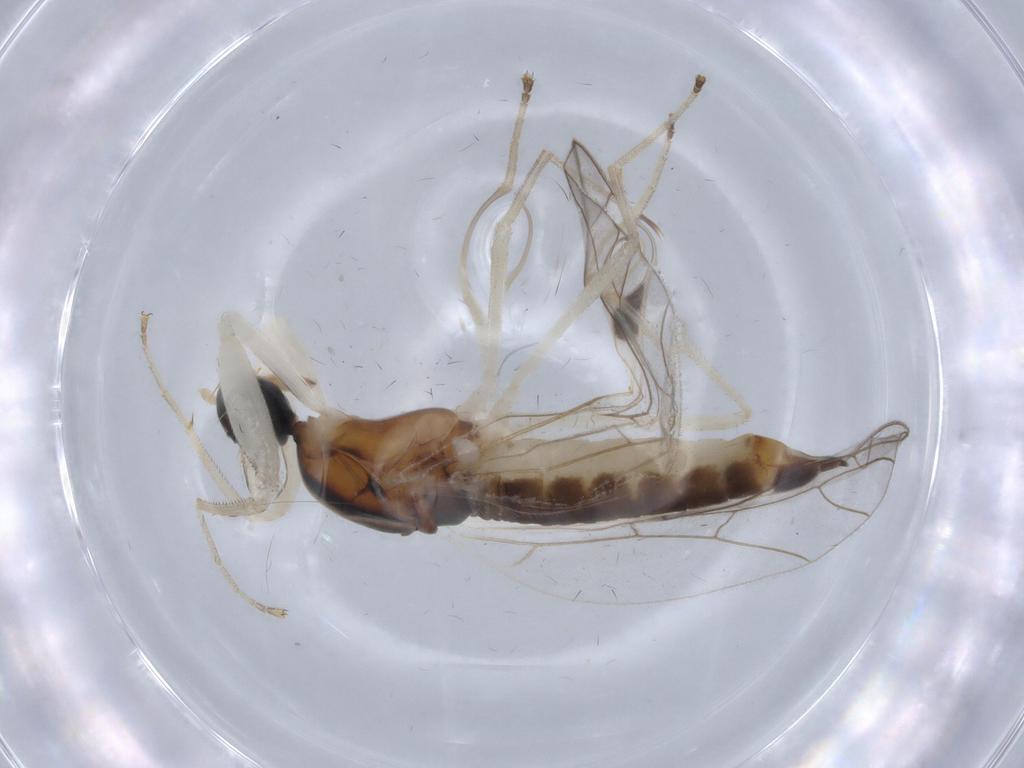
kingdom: Animalia
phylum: Arthropoda
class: Insecta
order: Diptera
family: Empididae
